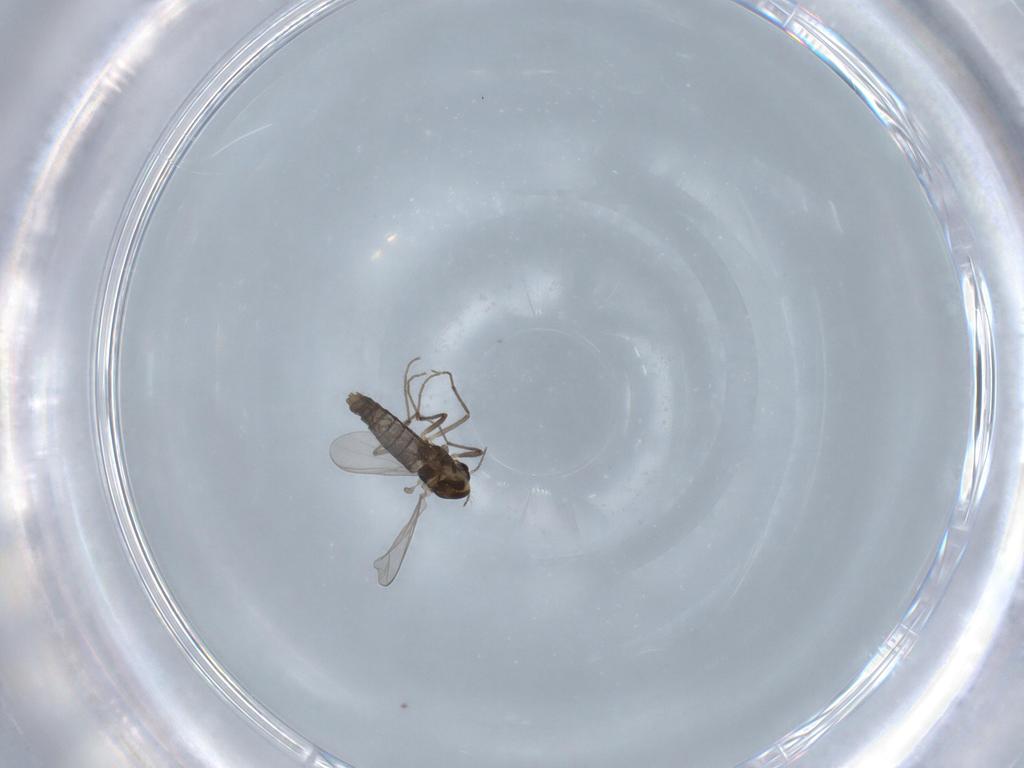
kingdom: Animalia
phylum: Arthropoda
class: Insecta
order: Diptera
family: Chironomidae
